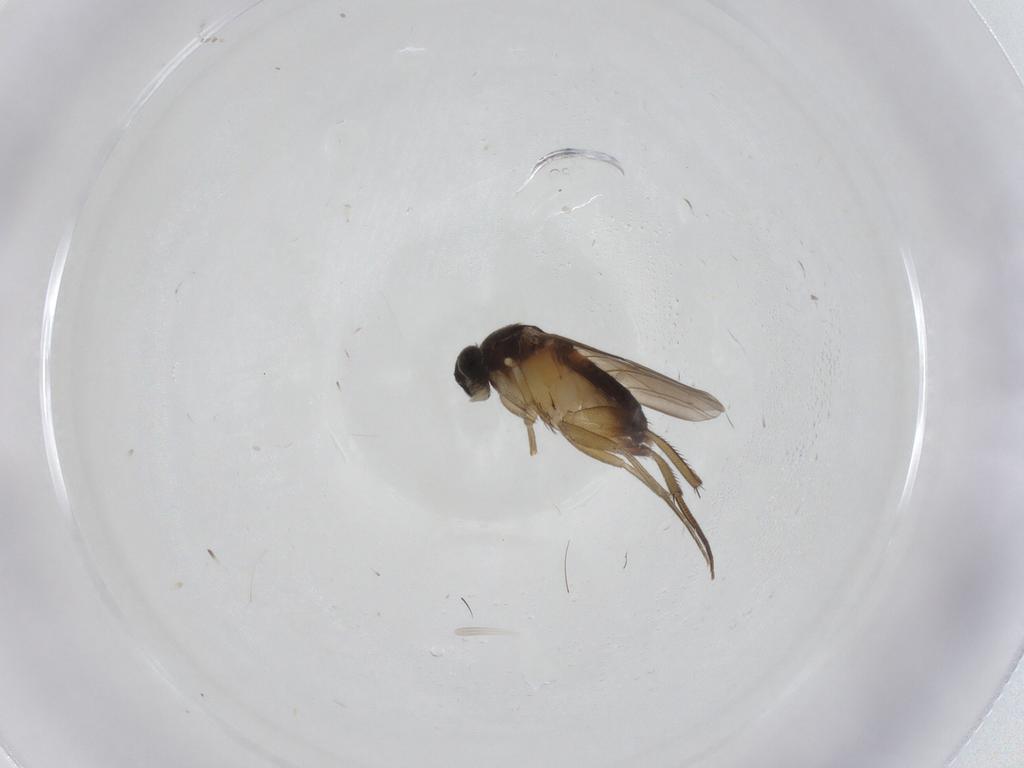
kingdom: Animalia
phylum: Arthropoda
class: Insecta
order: Diptera
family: Phoridae
